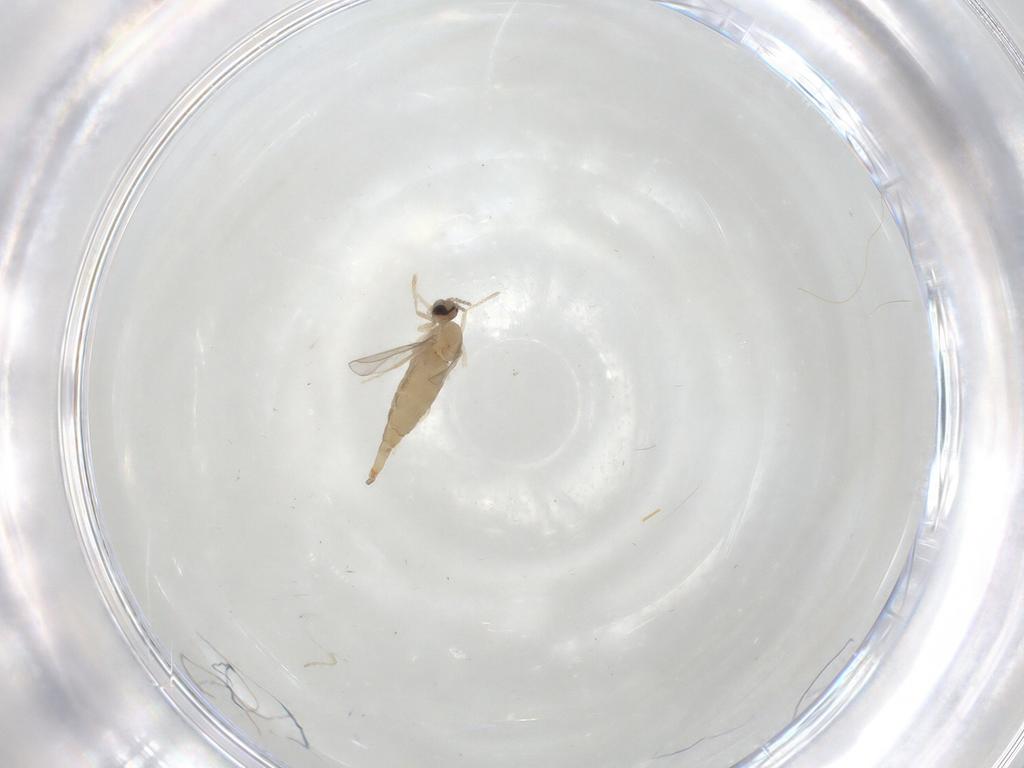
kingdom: Animalia
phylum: Arthropoda
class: Insecta
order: Diptera
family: Cecidomyiidae
